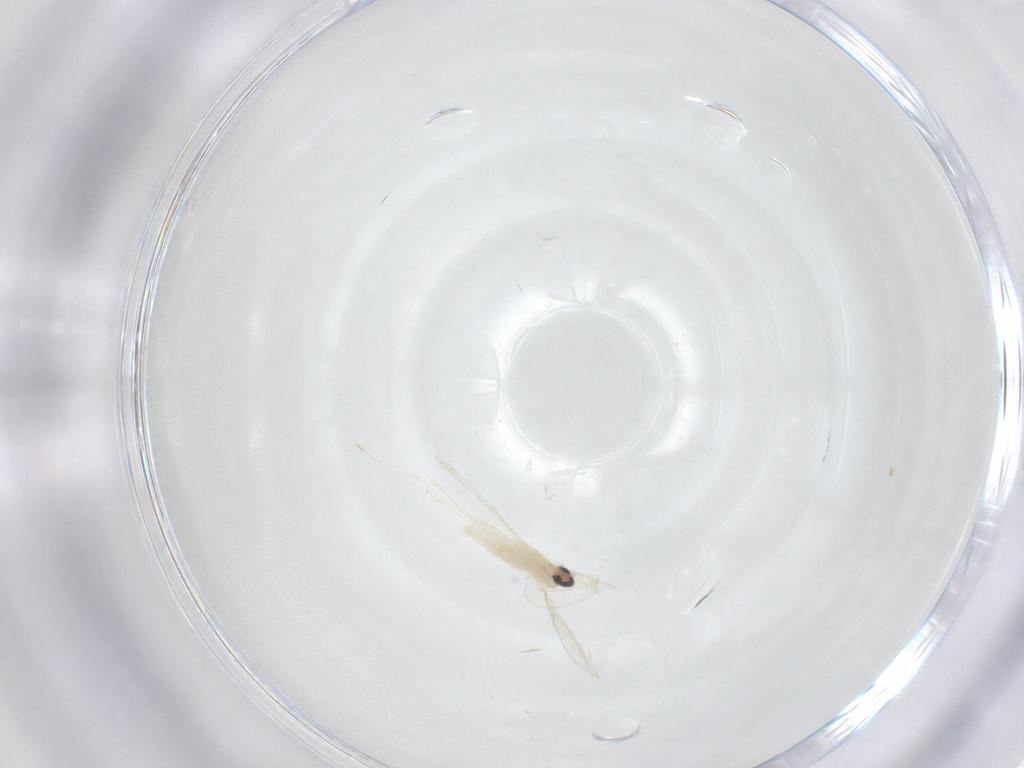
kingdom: Animalia
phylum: Arthropoda
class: Insecta
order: Diptera
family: Cecidomyiidae
